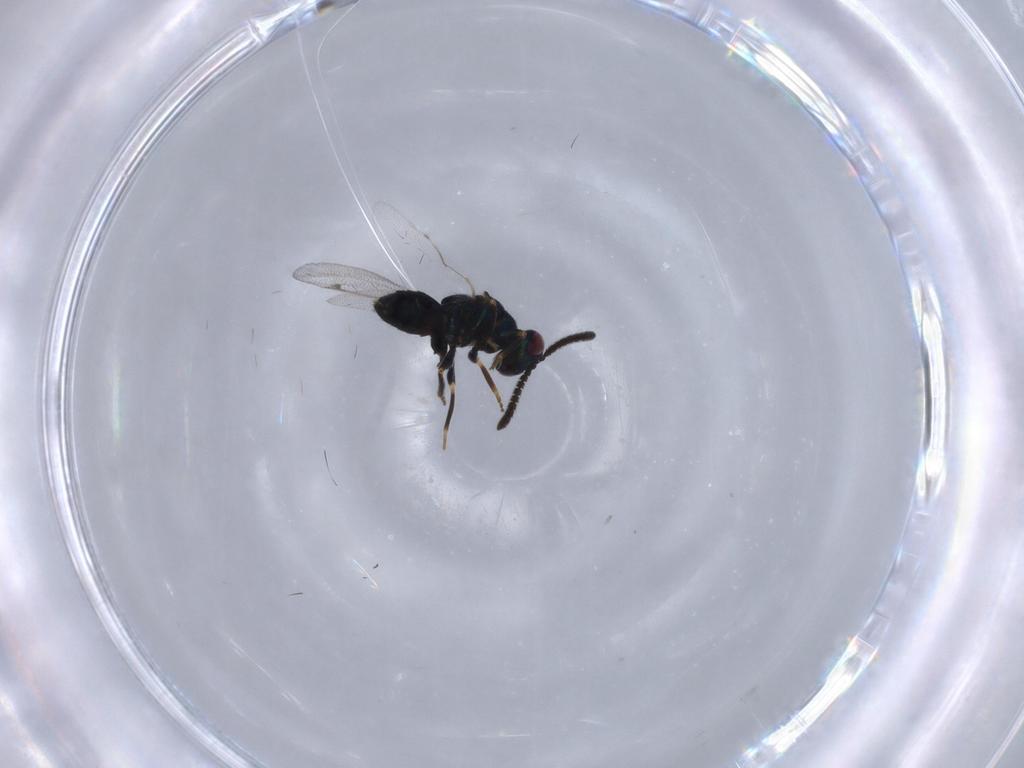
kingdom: Animalia
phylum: Arthropoda
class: Insecta
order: Hymenoptera
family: Torymidae
